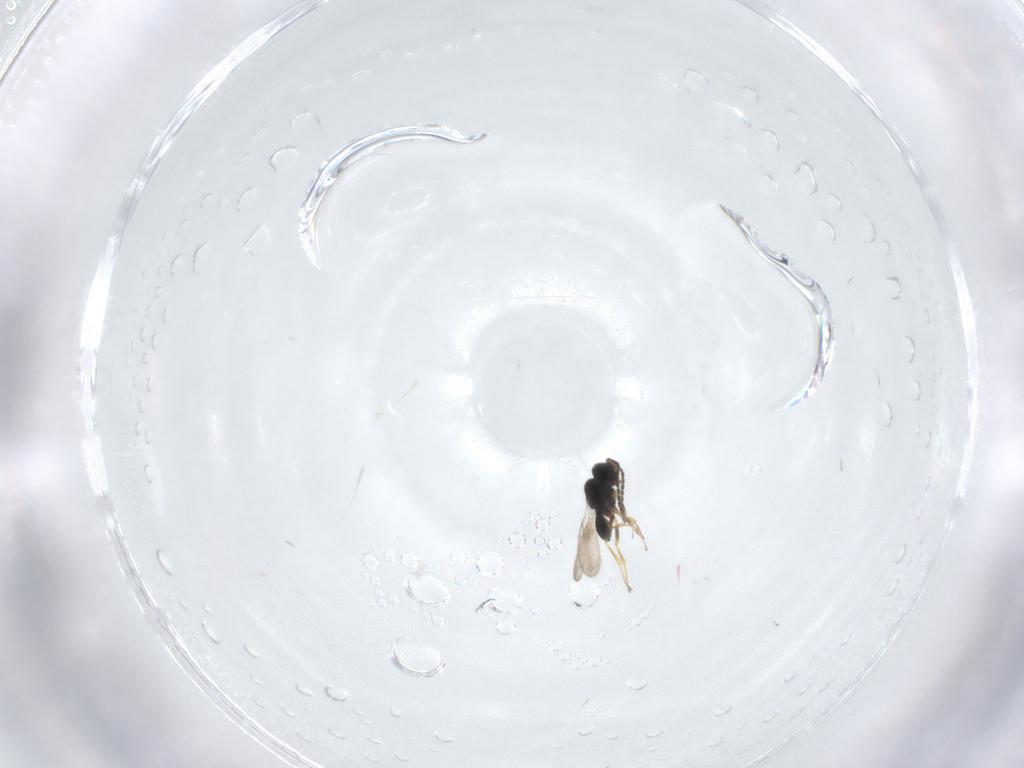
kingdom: Animalia
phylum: Arthropoda
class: Insecta
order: Hymenoptera
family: Scelionidae
